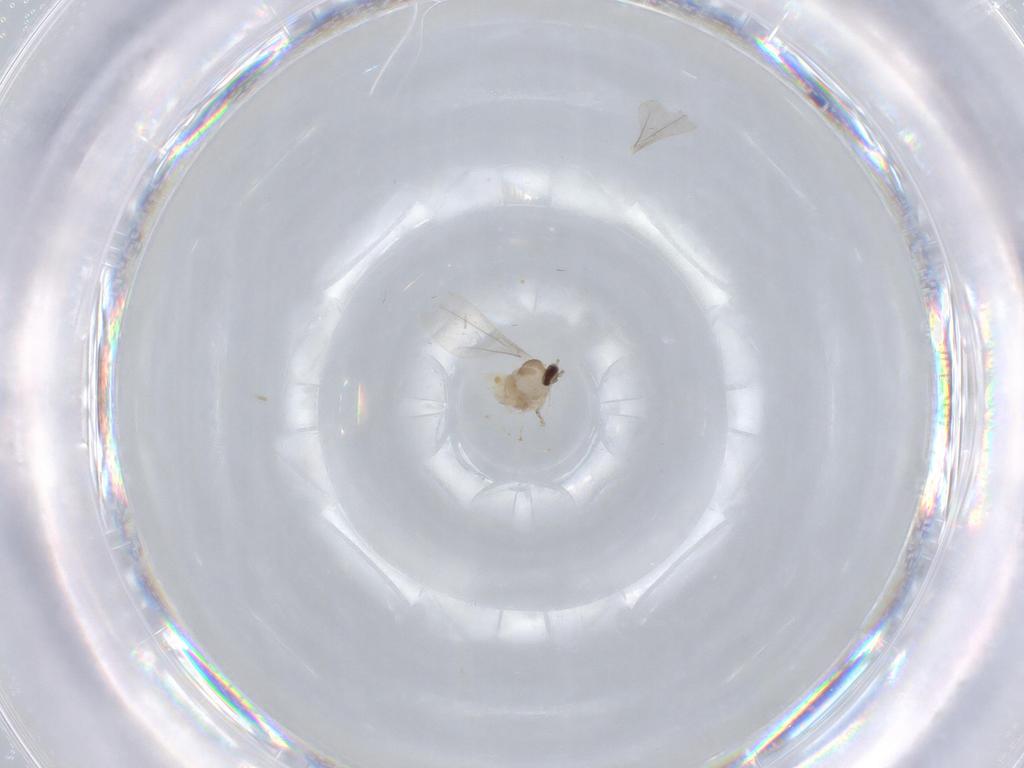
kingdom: Animalia
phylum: Arthropoda
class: Insecta
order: Diptera
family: Cecidomyiidae
